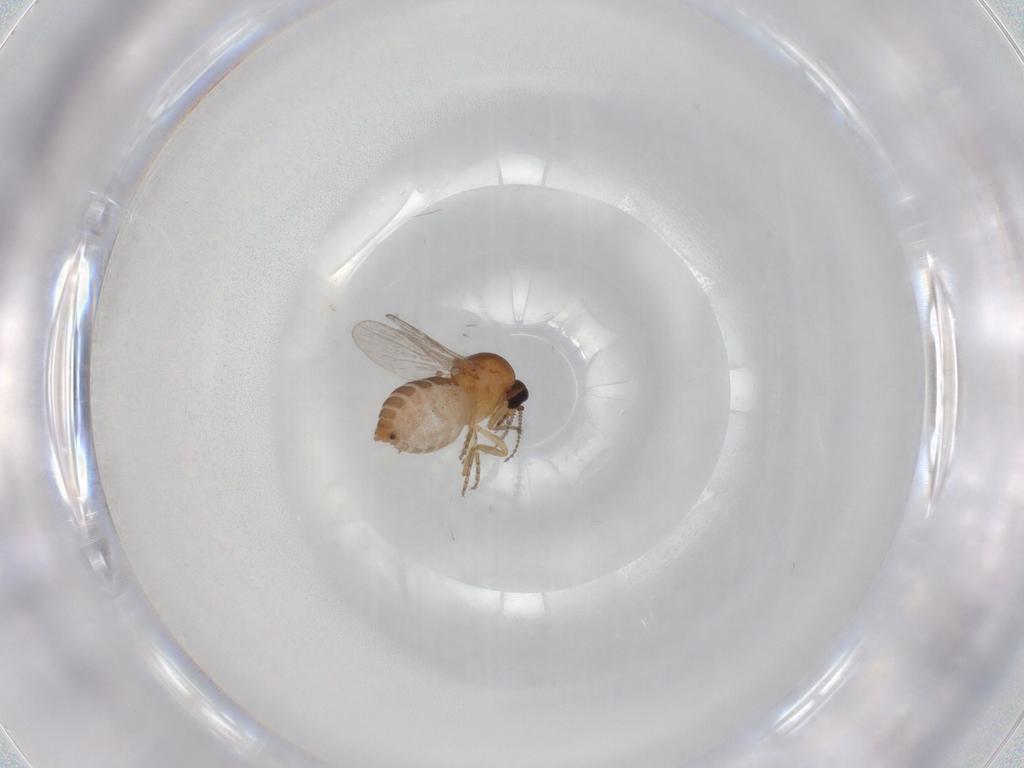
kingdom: Animalia
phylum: Arthropoda
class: Insecta
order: Diptera
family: Ceratopogonidae
